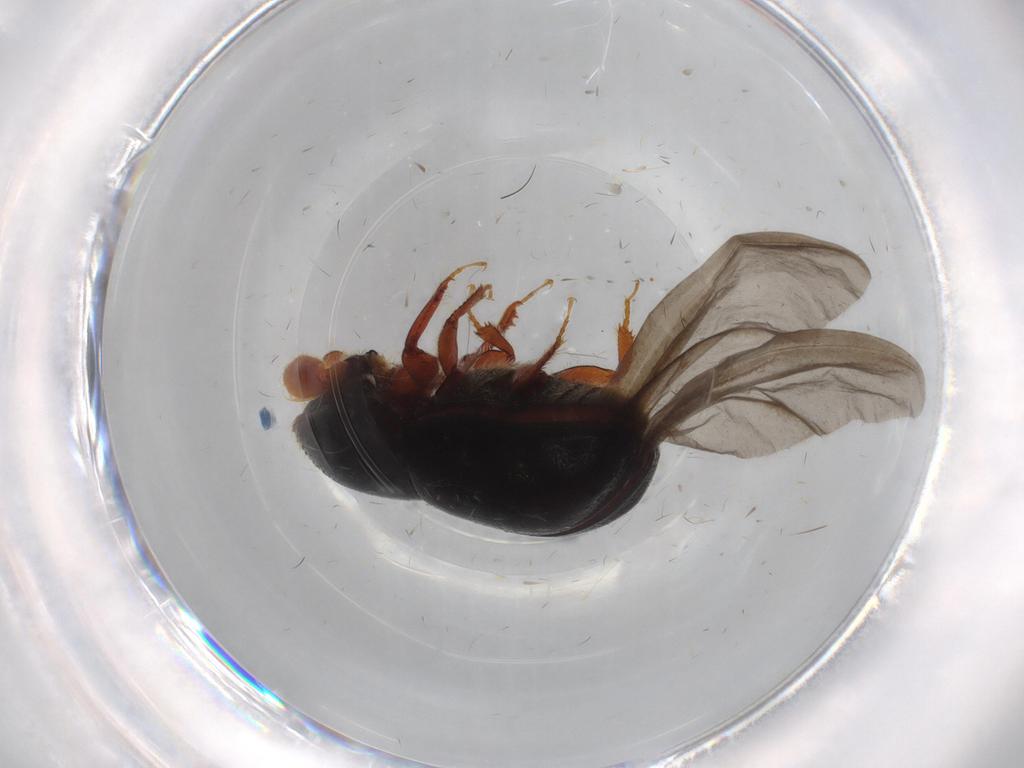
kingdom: Animalia
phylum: Arthropoda
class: Insecta
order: Coleoptera
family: Curculionidae
